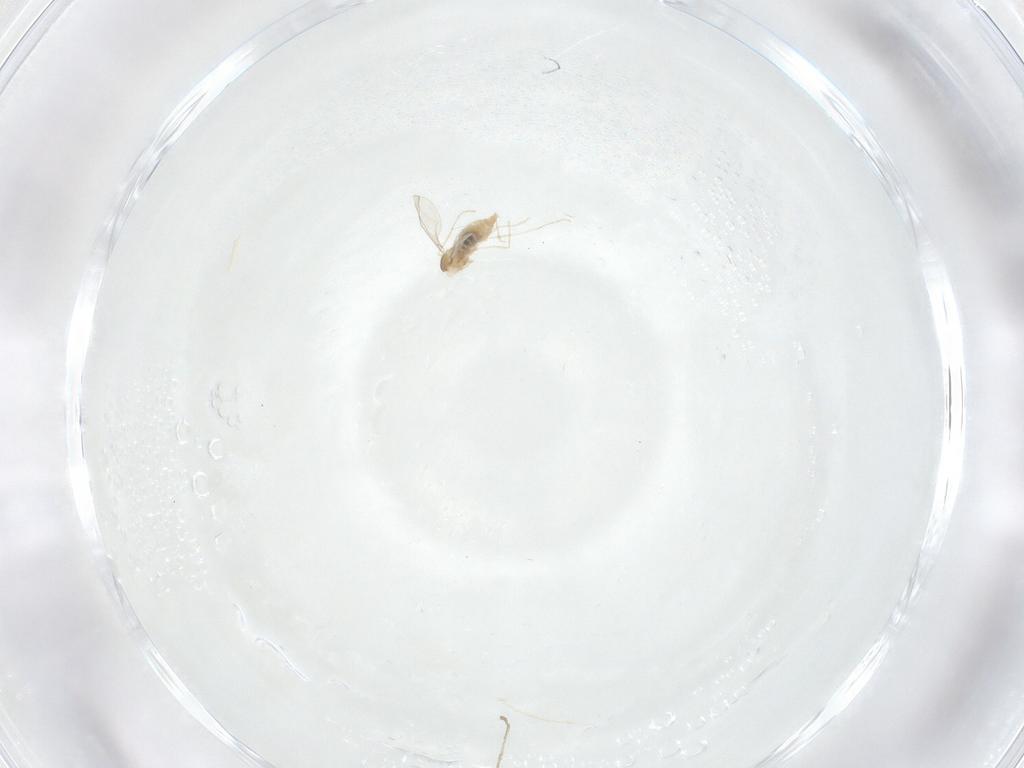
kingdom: Animalia
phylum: Arthropoda
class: Insecta
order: Diptera
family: Cecidomyiidae
